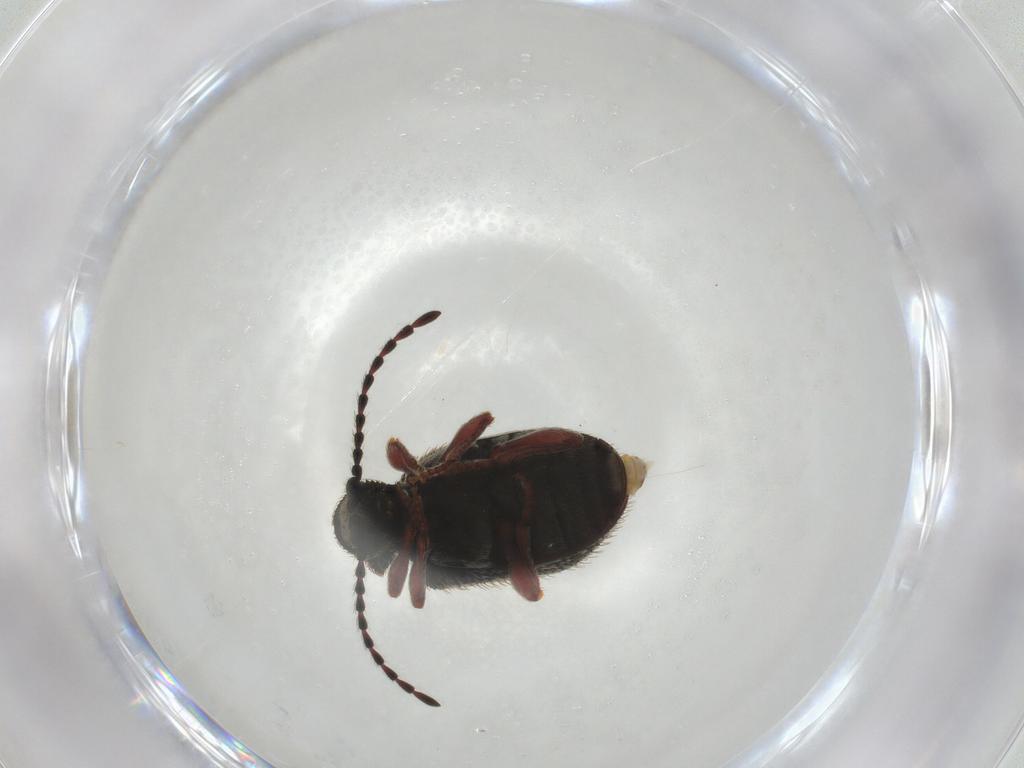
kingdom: Animalia
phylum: Arthropoda
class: Insecta
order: Coleoptera
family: Ptinidae
